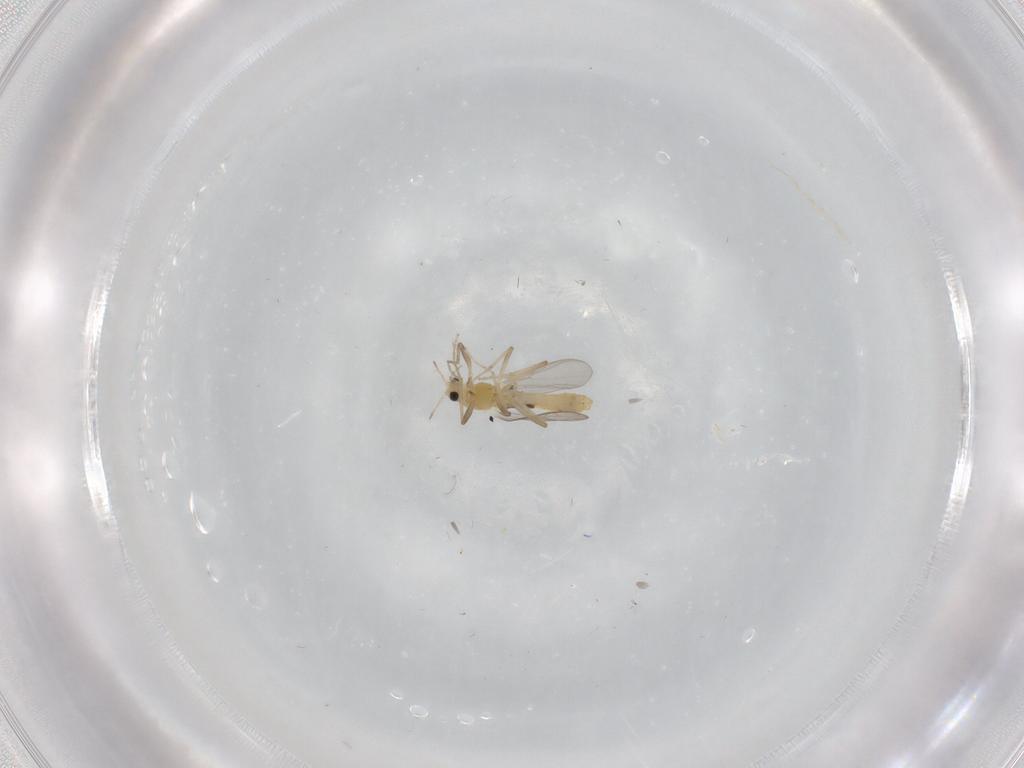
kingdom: Animalia
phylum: Arthropoda
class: Insecta
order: Diptera
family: Chironomidae
